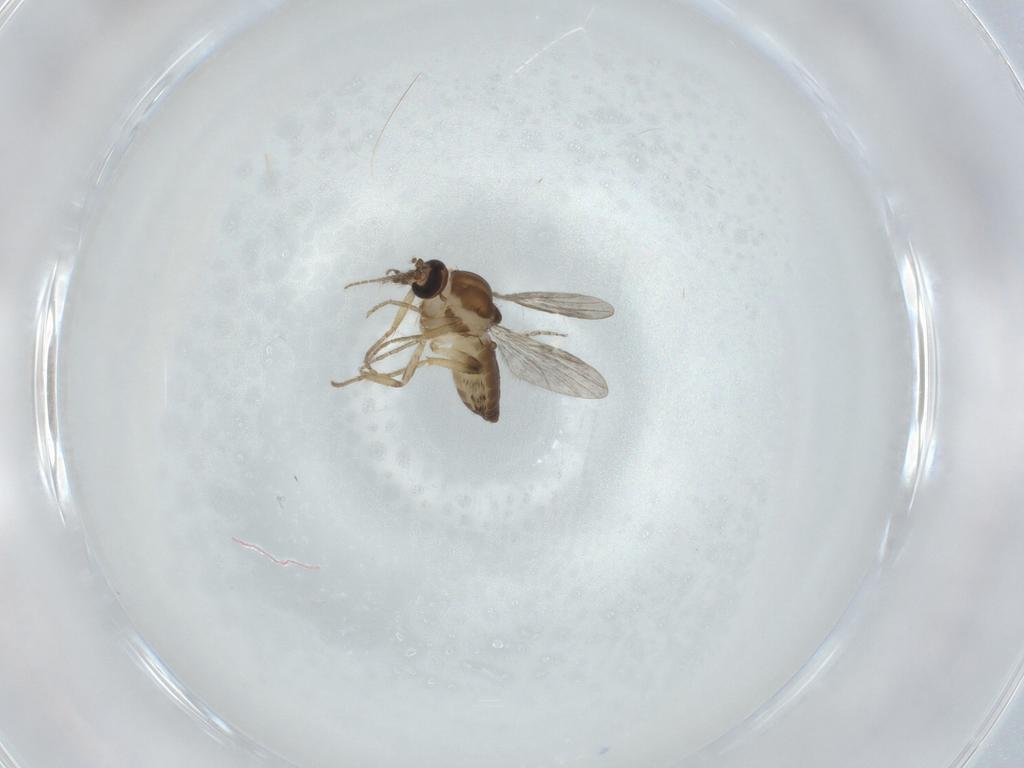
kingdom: Animalia
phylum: Arthropoda
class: Insecta
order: Diptera
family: Ceratopogonidae
